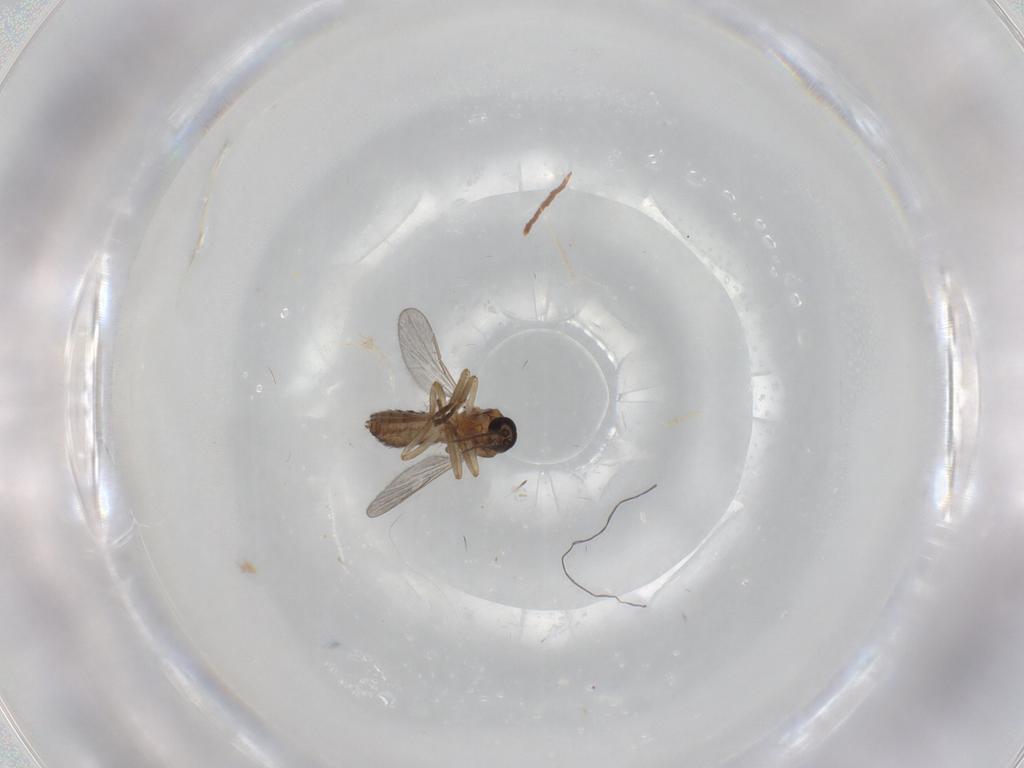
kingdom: Animalia
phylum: Arthropoda
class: Insecta
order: Diptera
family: Ceratopogonidae
